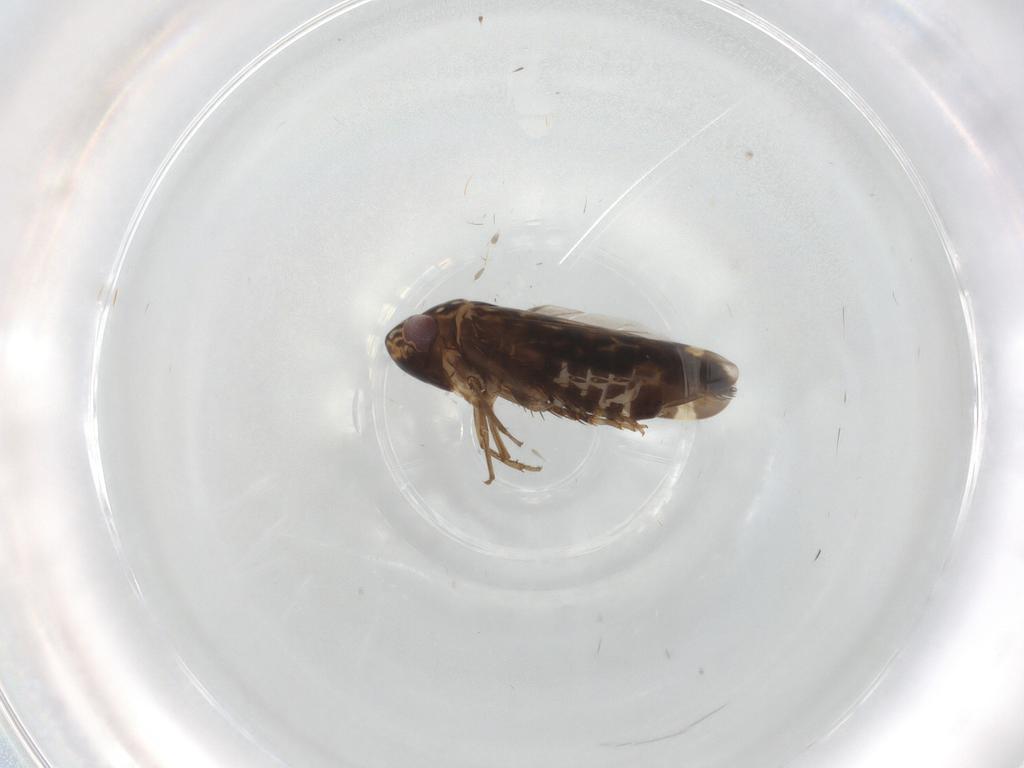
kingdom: Animalia
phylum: Arthropoda
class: Insecta
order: Hemiptera
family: Cicadellidae
